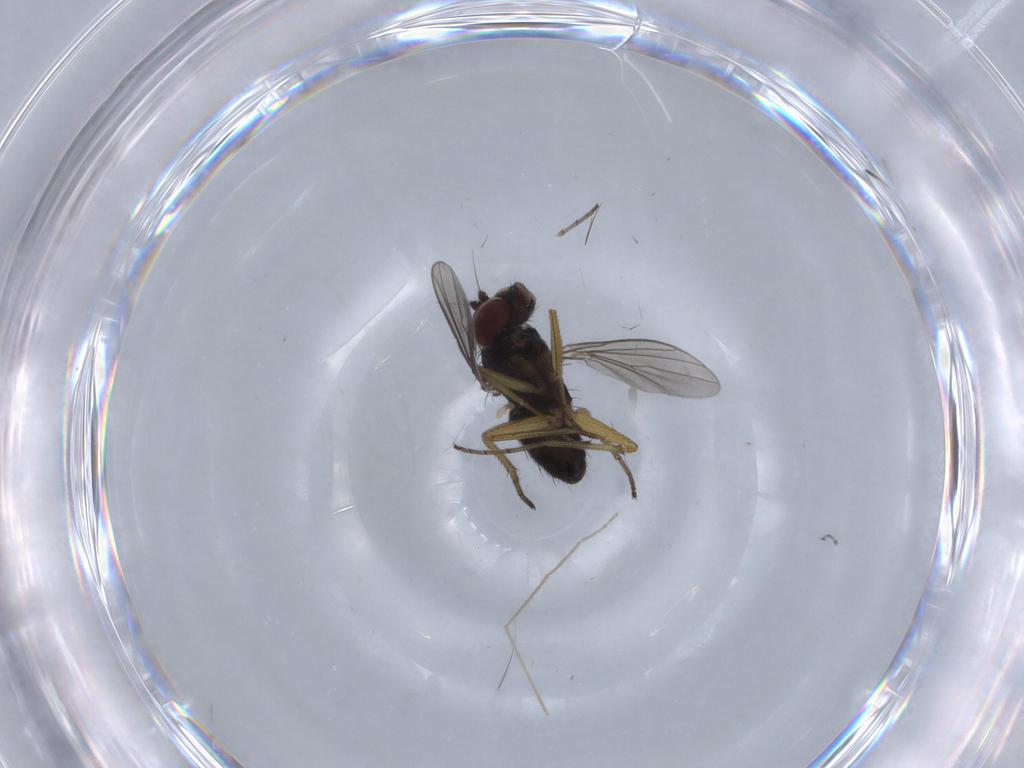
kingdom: Animalia
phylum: Arthropoda
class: Insecta
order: Diptera
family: Dolichopodidae
